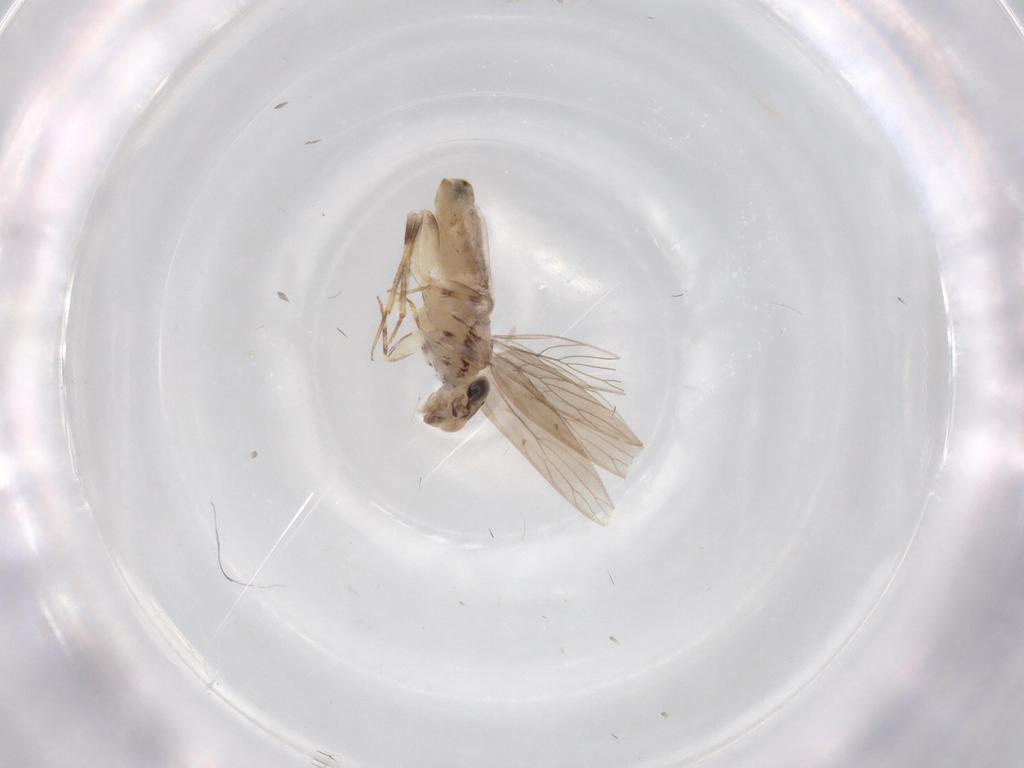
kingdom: Animalia
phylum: Arthropoda
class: Insecta
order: Psocodea
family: Lepidopsocidae
